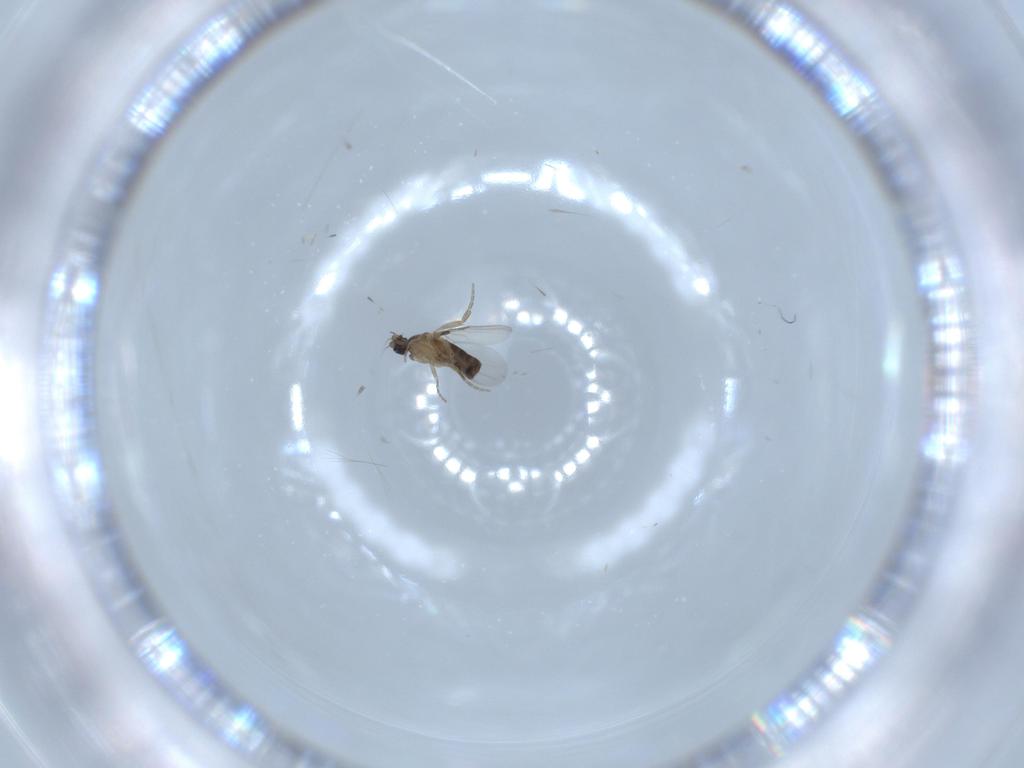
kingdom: Animalia
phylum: Arthropoda
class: Insecta
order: Diptera
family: Phoridae
